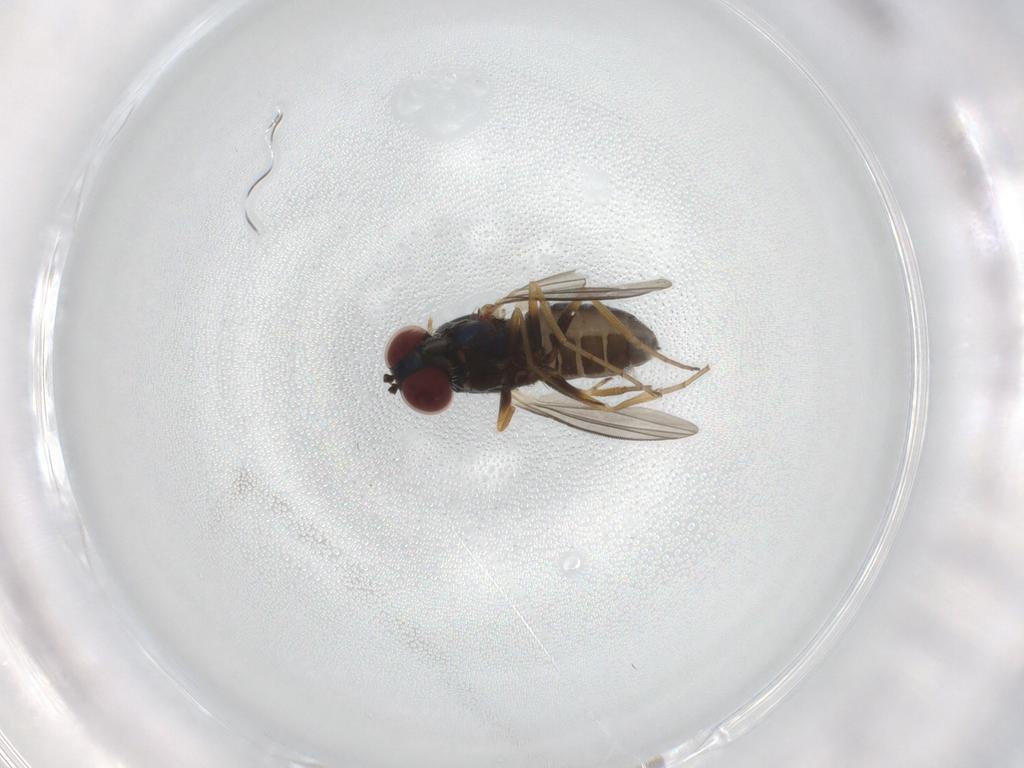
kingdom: Animalia
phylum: Arthropoda
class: Insecta
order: Diptera
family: Dolichopodidae
